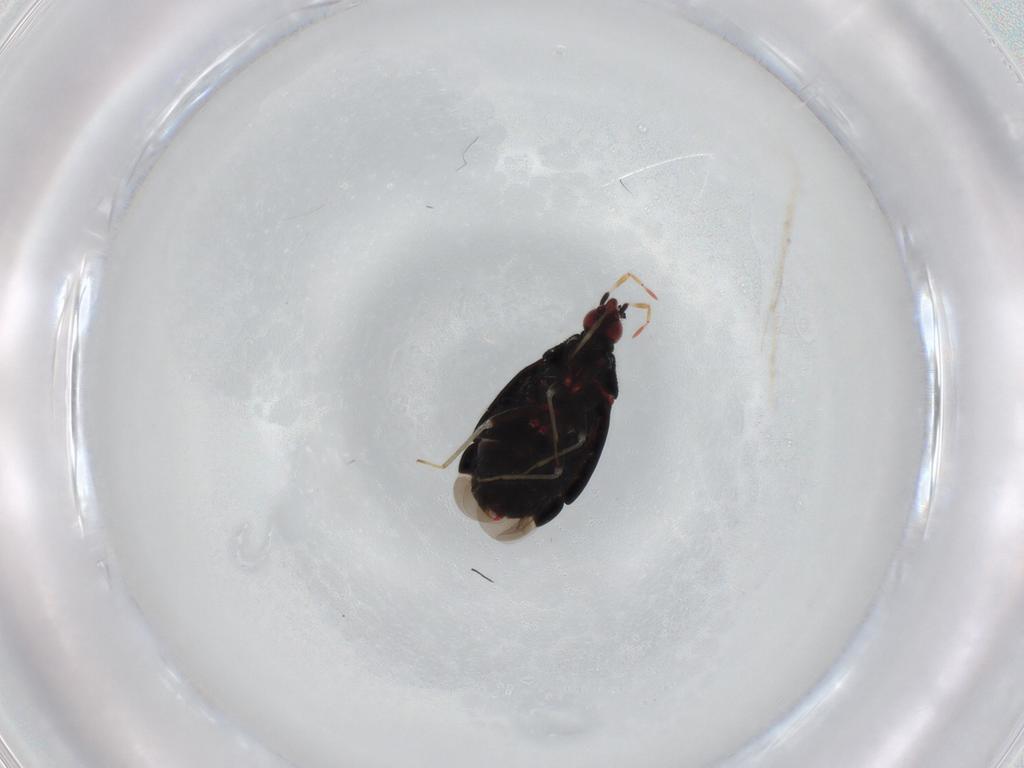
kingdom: Animalia
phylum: Arthropoda
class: Insecta
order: Hemiptera
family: Miridae
